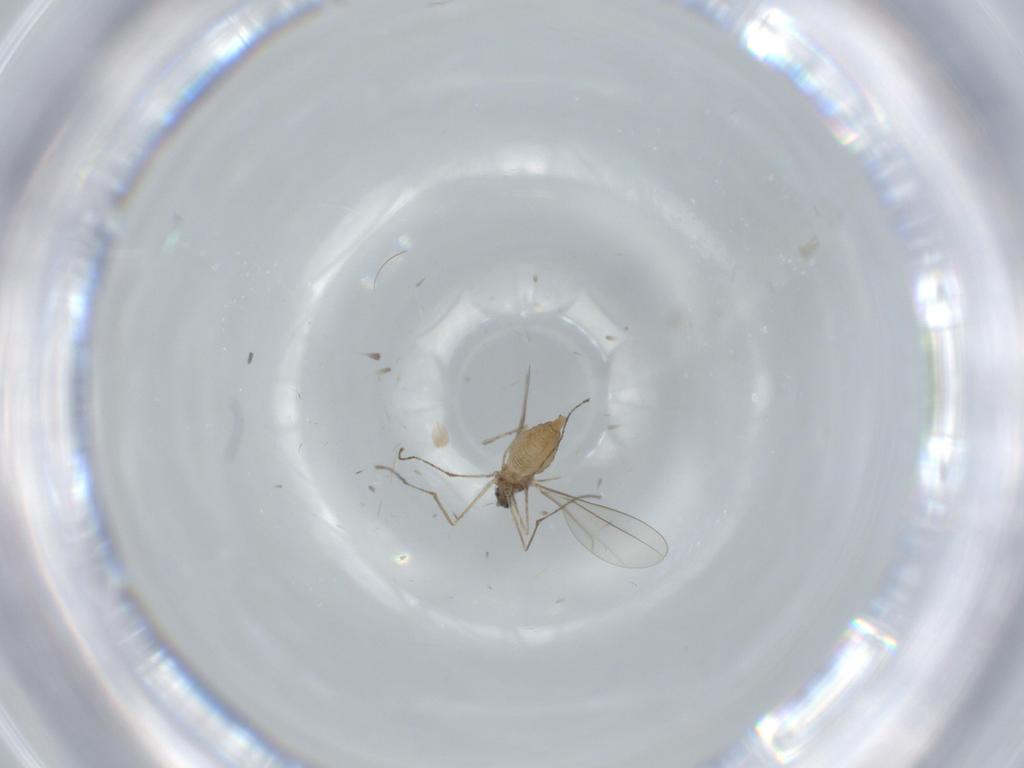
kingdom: Animalia
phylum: Arthropoda
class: Insecta
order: Diptera
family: Cecidomyiidae
